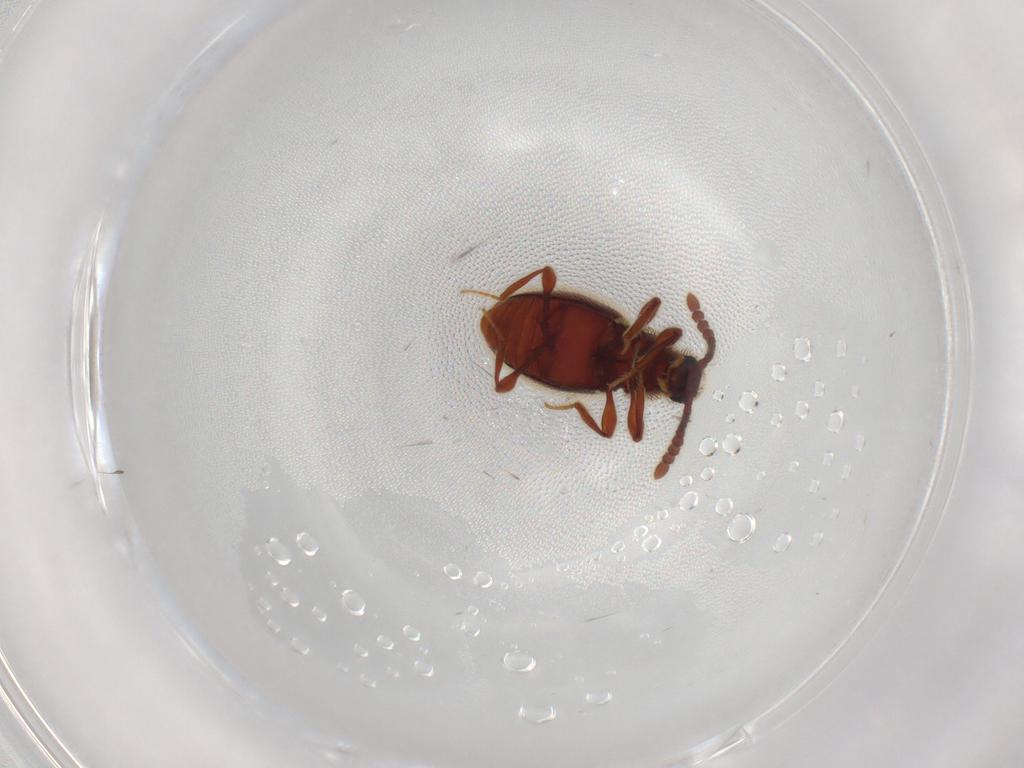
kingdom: Animalia
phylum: Arthropoda
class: Insecta
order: Coleoptera
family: Staphylinidae
